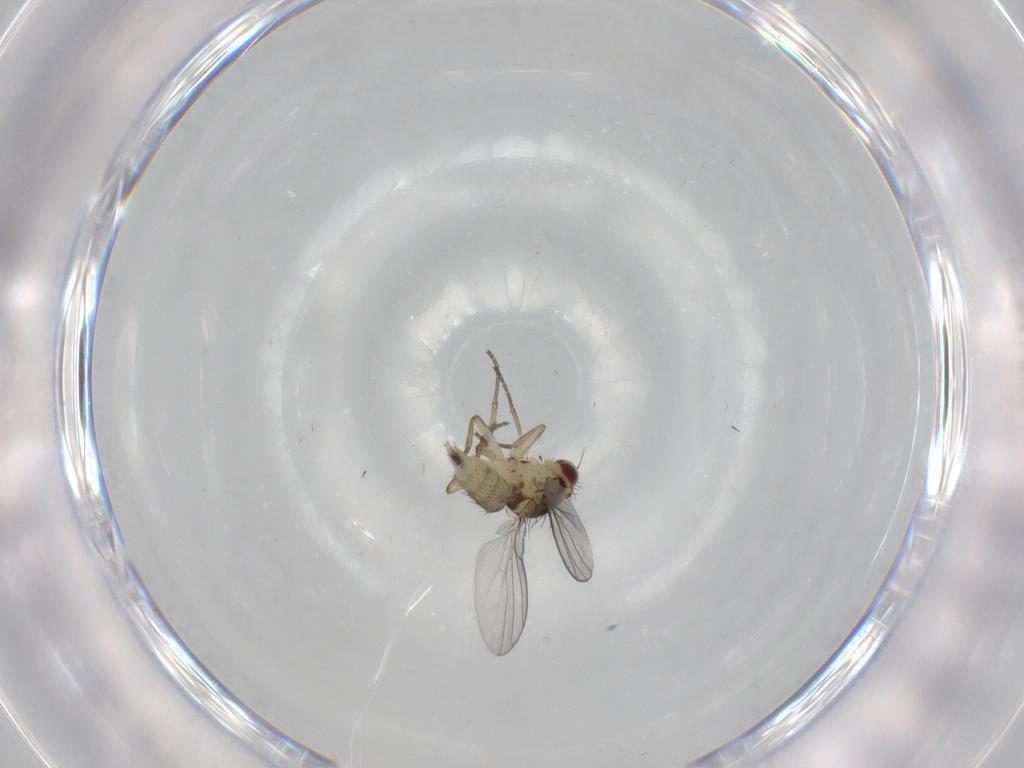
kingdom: Animalia
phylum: Arthropoda
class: Insecta
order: Diptera
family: Agromyzidae
